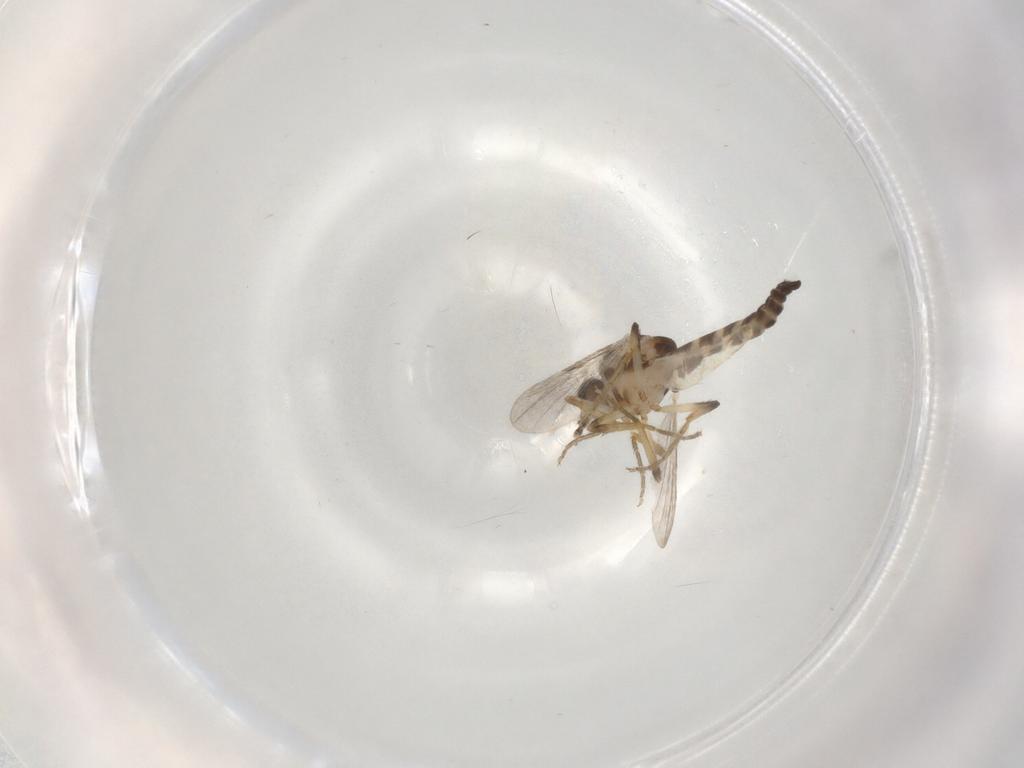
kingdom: Animalia
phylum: Arthropoda
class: Insecta
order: Diptera
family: Ceratopogonidae
